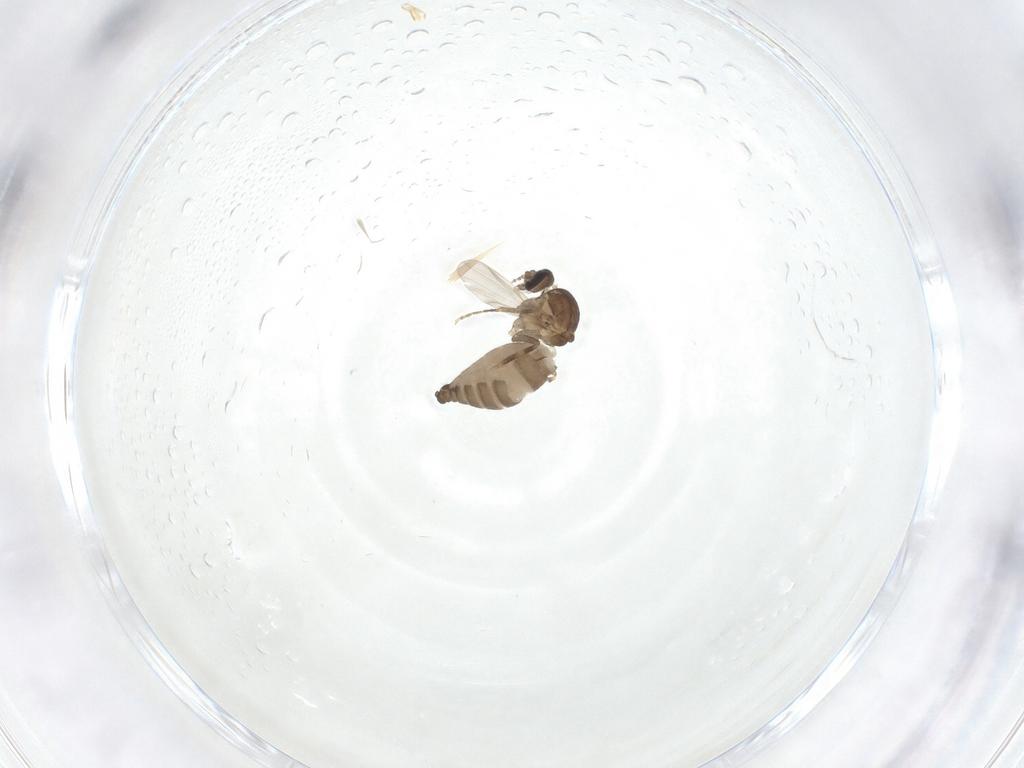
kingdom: Animalia
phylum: Arthropoda
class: Insecta
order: Diptera
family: Ceratopogonidae
